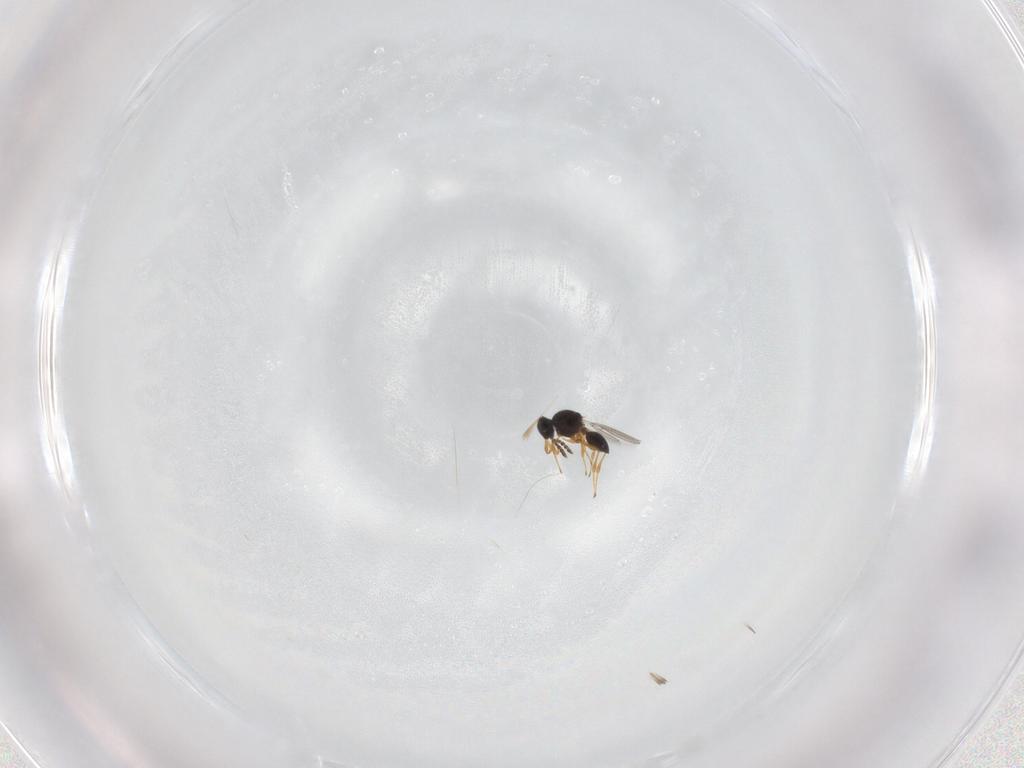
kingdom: Animalia
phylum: Arthropoda
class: Insecta
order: Hymenoptera
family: Platygastridae
